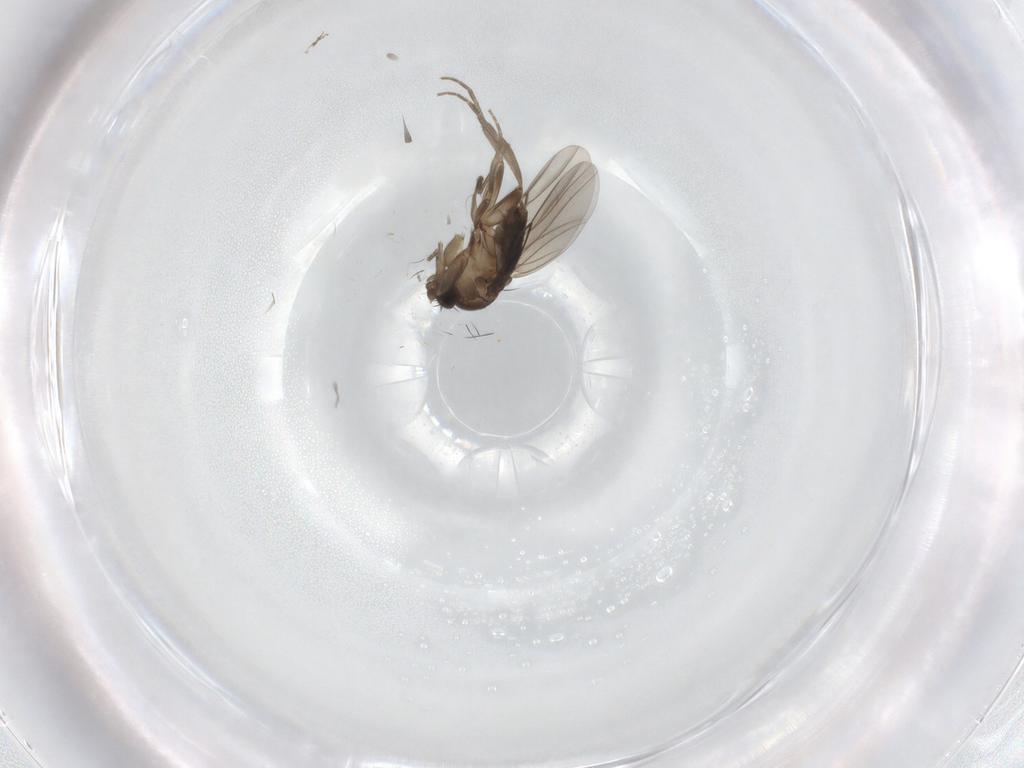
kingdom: Animalia
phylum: Arthropoda
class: Insecta
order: Diptera
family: Phoridae
